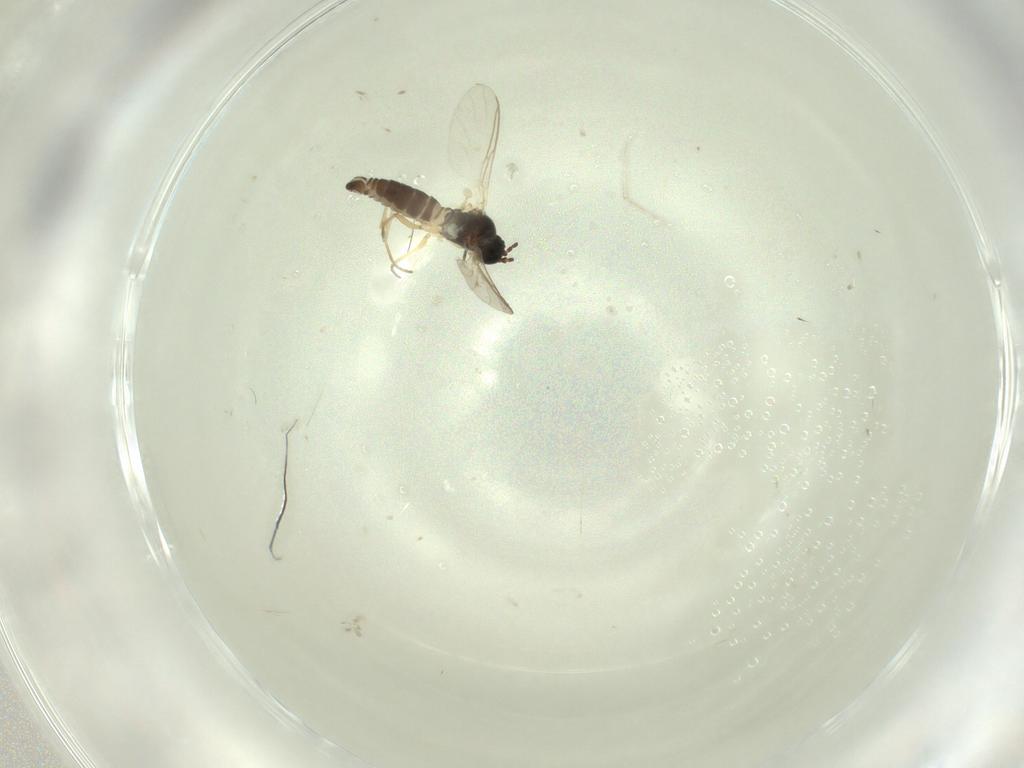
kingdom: Animalia
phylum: Arthropoda
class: Insecta
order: Diptera
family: Sciaridae
